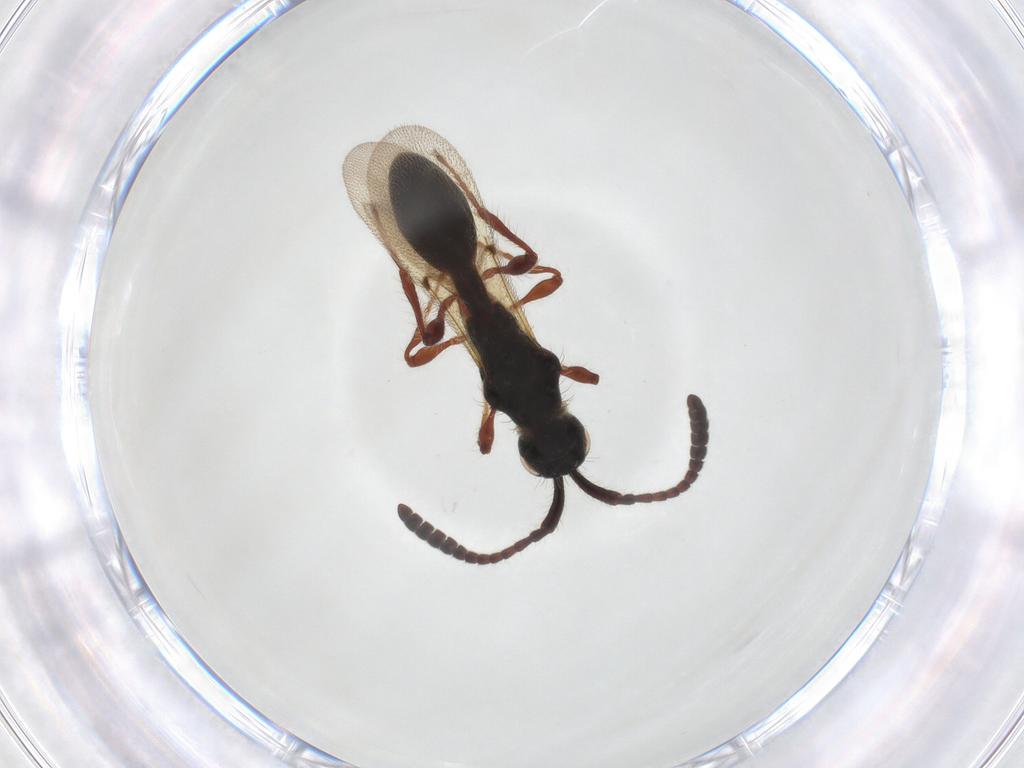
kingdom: Animalia
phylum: Arthropoda
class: Insecta
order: Hymenoptera
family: Diapriidae
